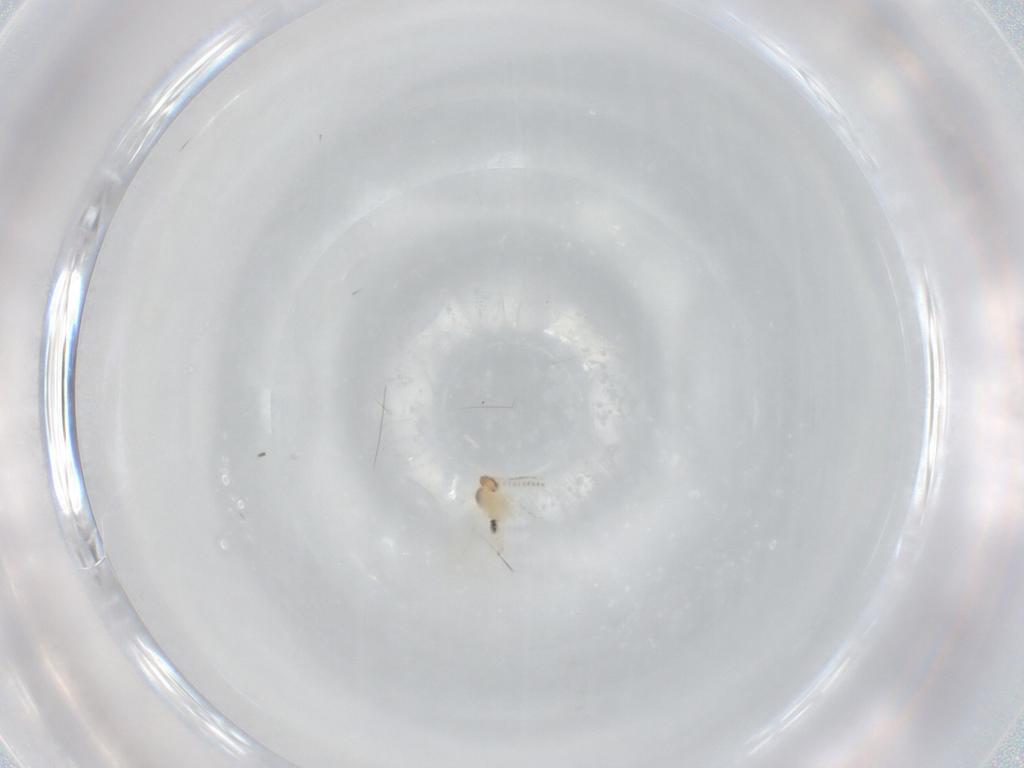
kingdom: Animalia
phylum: Arthropoda
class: Insecta
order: Diptera
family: Phoridae
